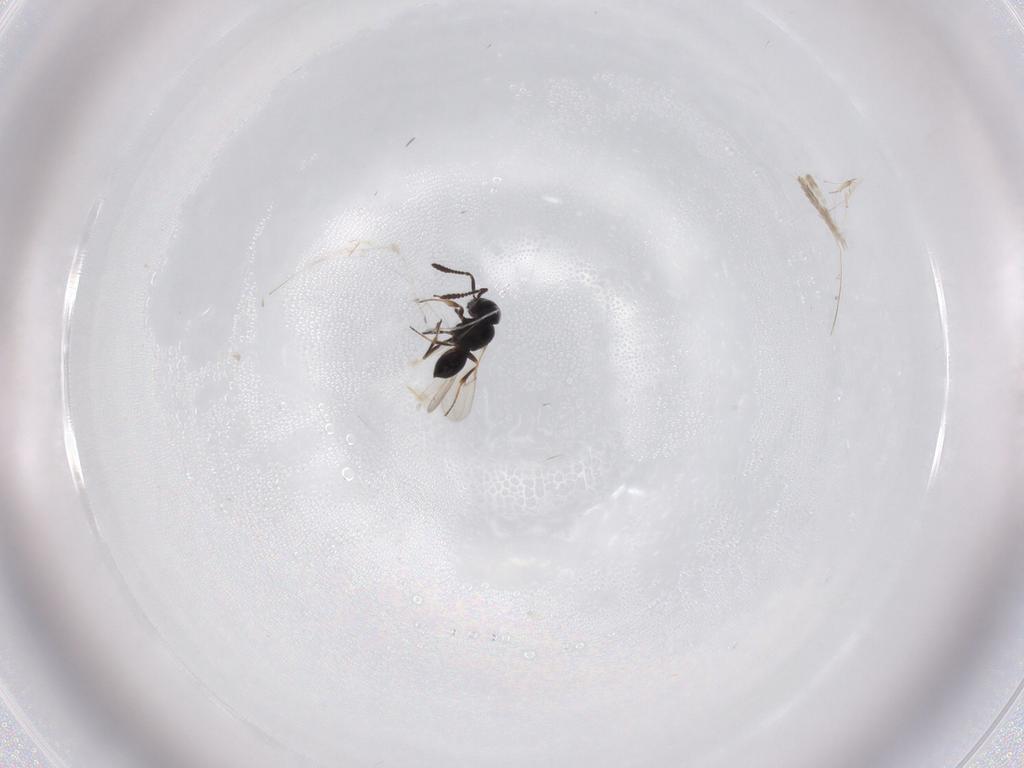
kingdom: Animalia
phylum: Arthropoda
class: Insecta
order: Hymenoptera
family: Scelionidae
